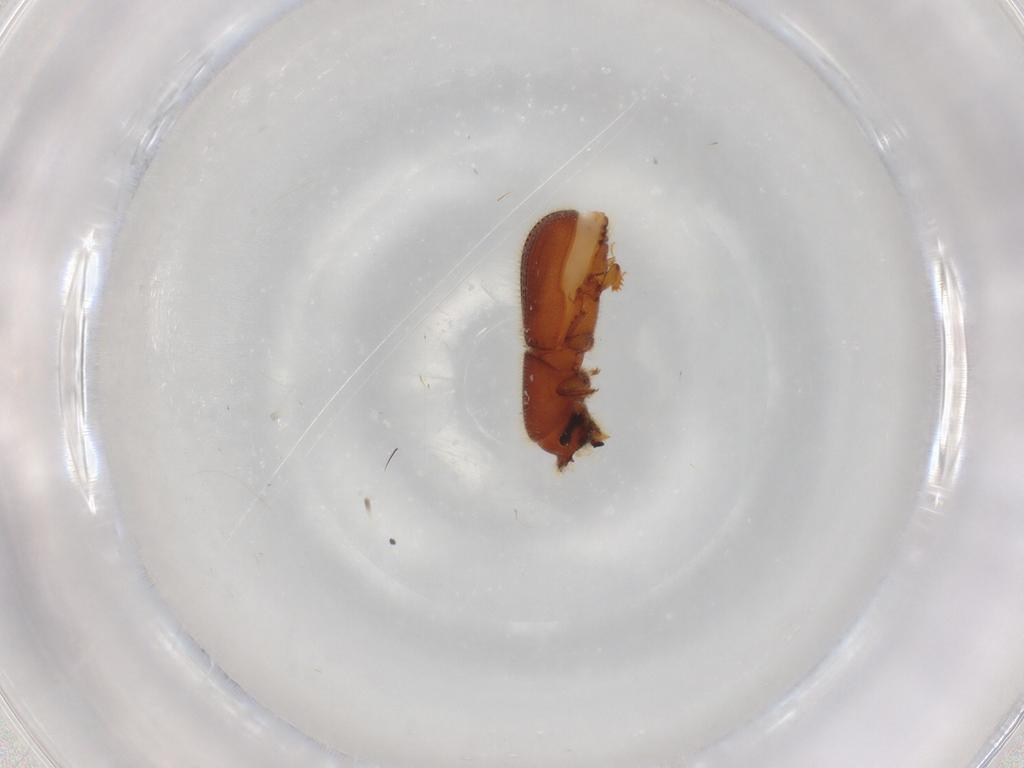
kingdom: Animalia
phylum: Arthropoda
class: Insecta
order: Coleoptera
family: Curculionidae
